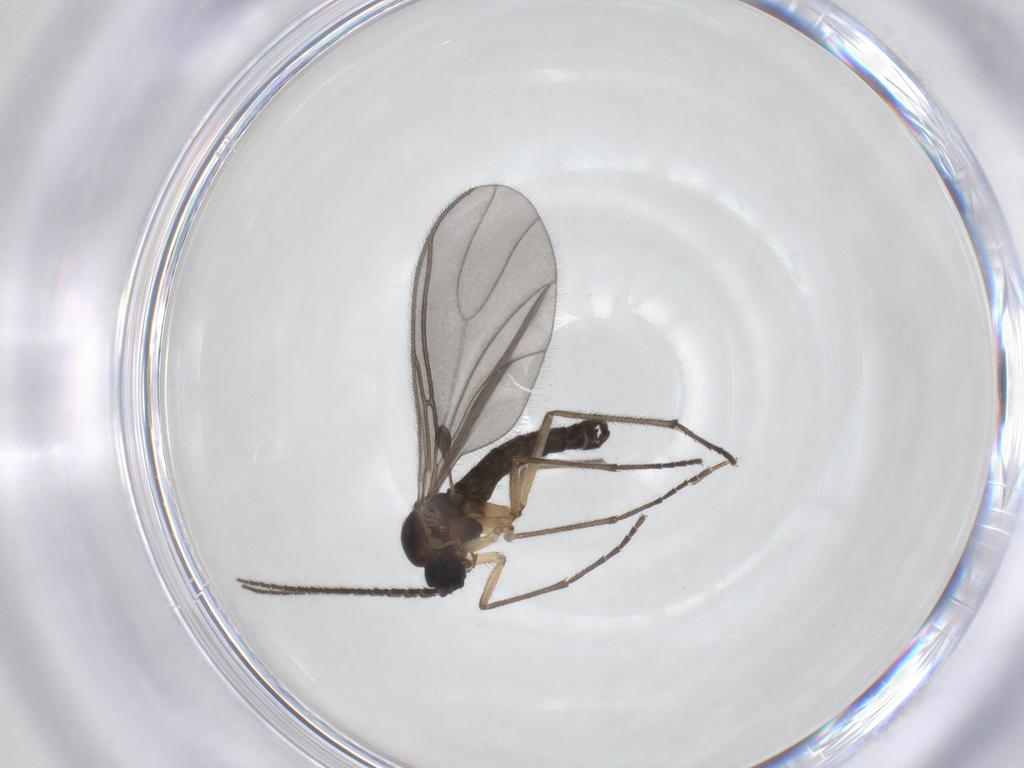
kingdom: Animalia
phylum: Arthropoda
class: Insecta
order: Diptera
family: Sciaridae
